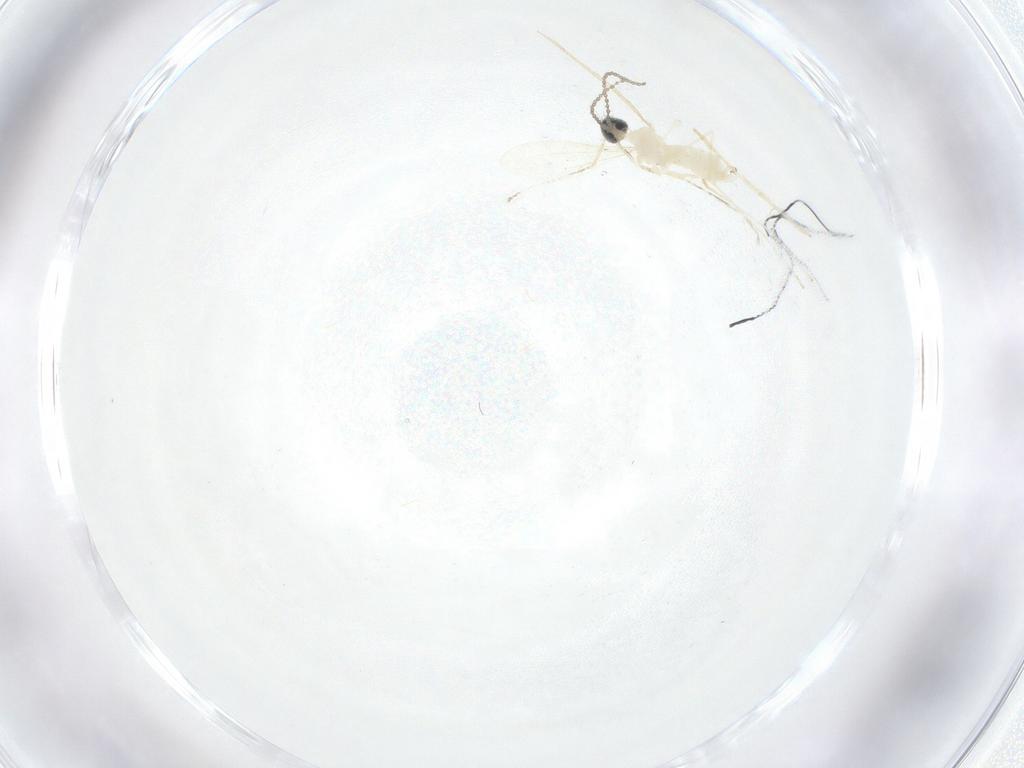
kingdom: Animalia
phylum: Arthropoda
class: Insecta
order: Diptera
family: Cecidomyiidae
